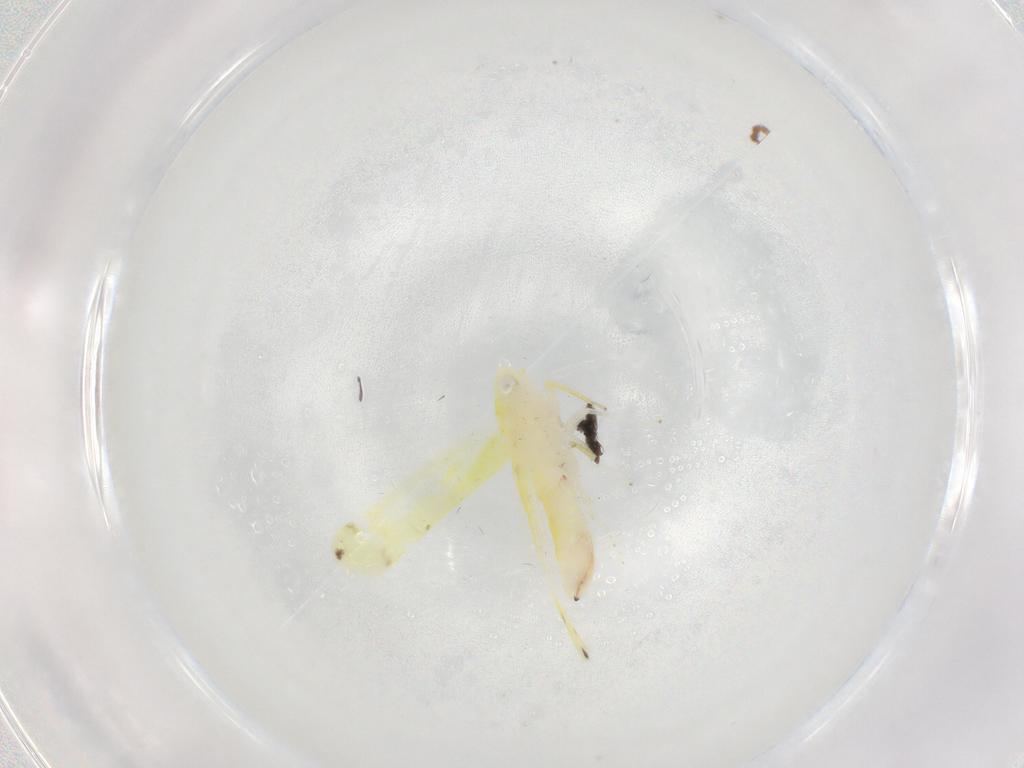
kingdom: Animalia
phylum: Arthropoda
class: Insecta
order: Hemiptera
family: Cicadellidae
